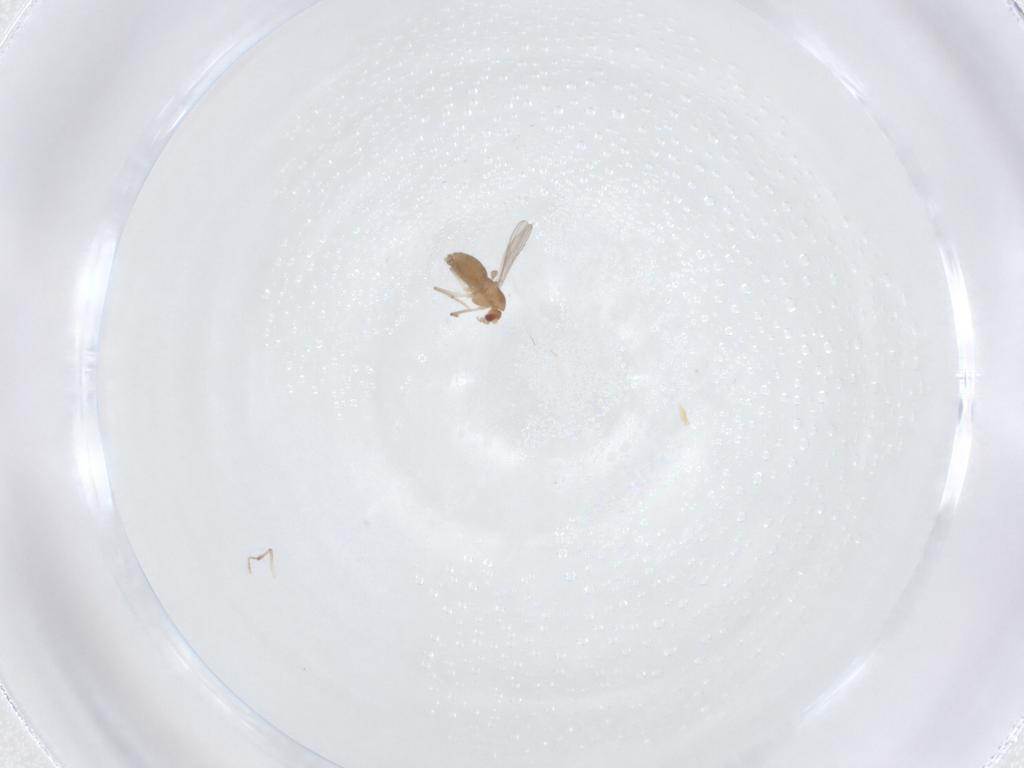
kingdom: Animalia
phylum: Arthropoda
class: Insecta
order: Diptera
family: Chironomidae
